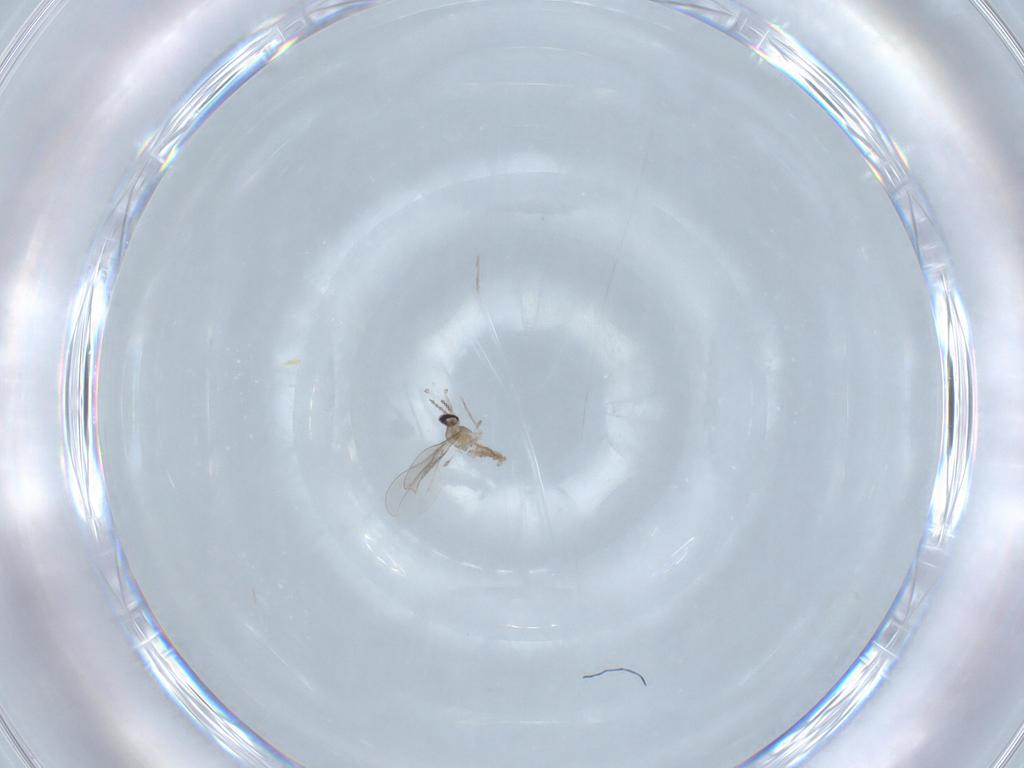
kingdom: Animalia
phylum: Arthropoda
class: Insecta
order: Diptera
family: Cecidomyiidae
